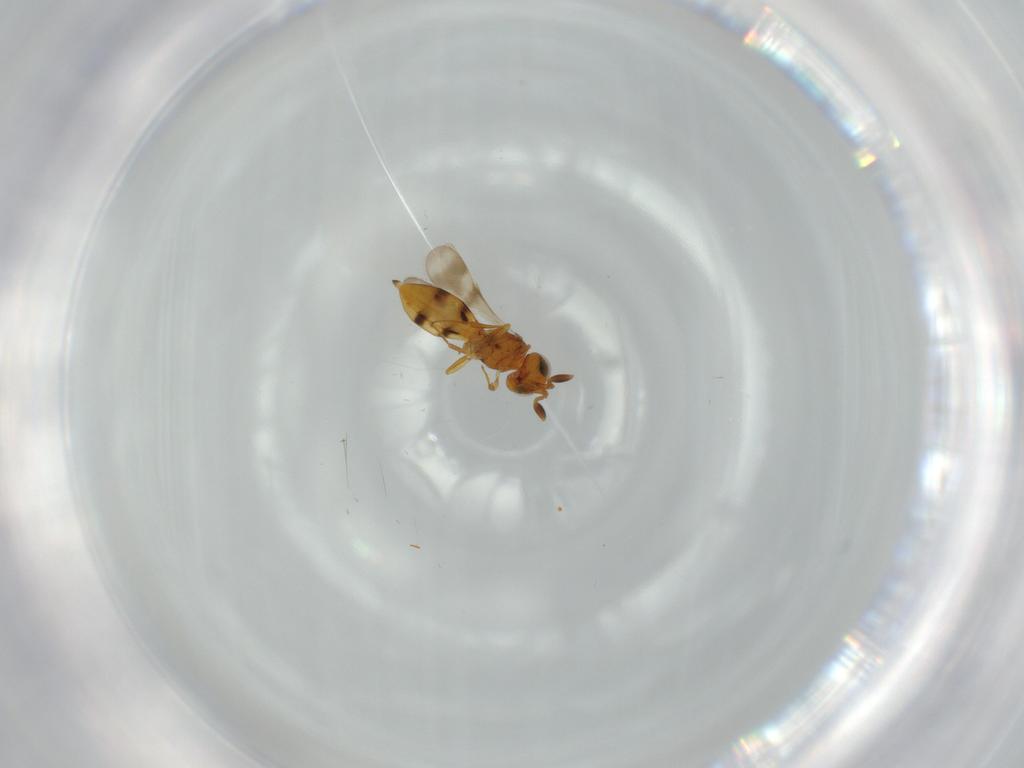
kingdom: Animalia
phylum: Arthropoda
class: Insecta
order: Hymenoptera
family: Scelionidae
